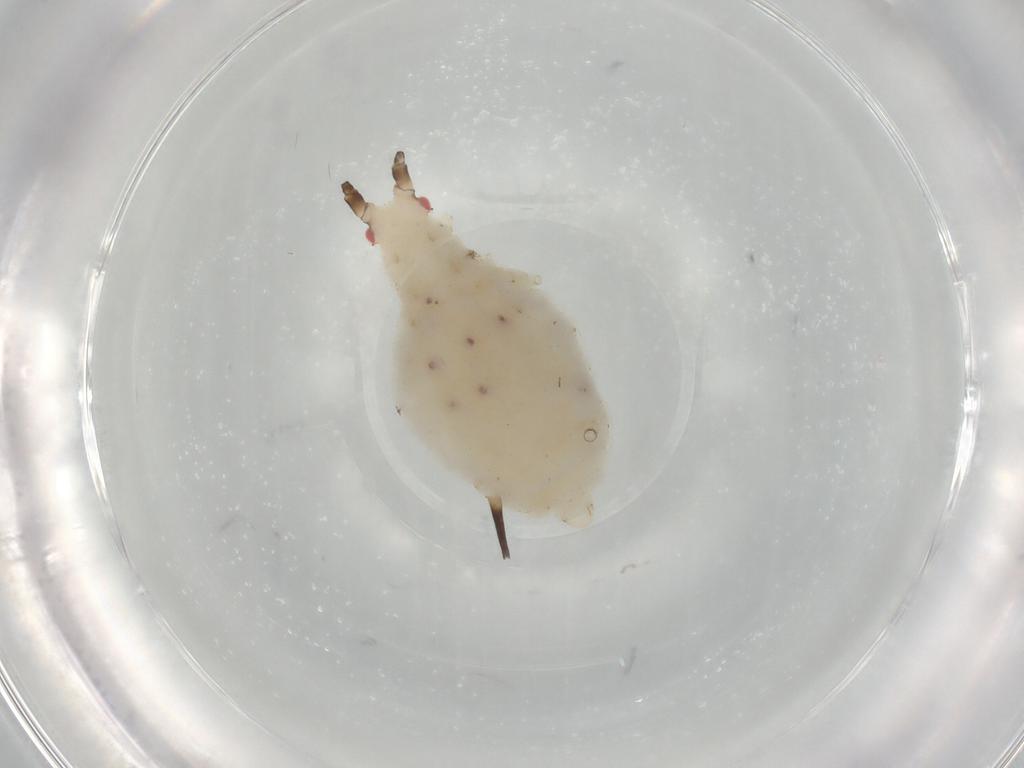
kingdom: Animalia
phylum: Arthropoda
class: Insecta
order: Hemiptera
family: Aphididae
